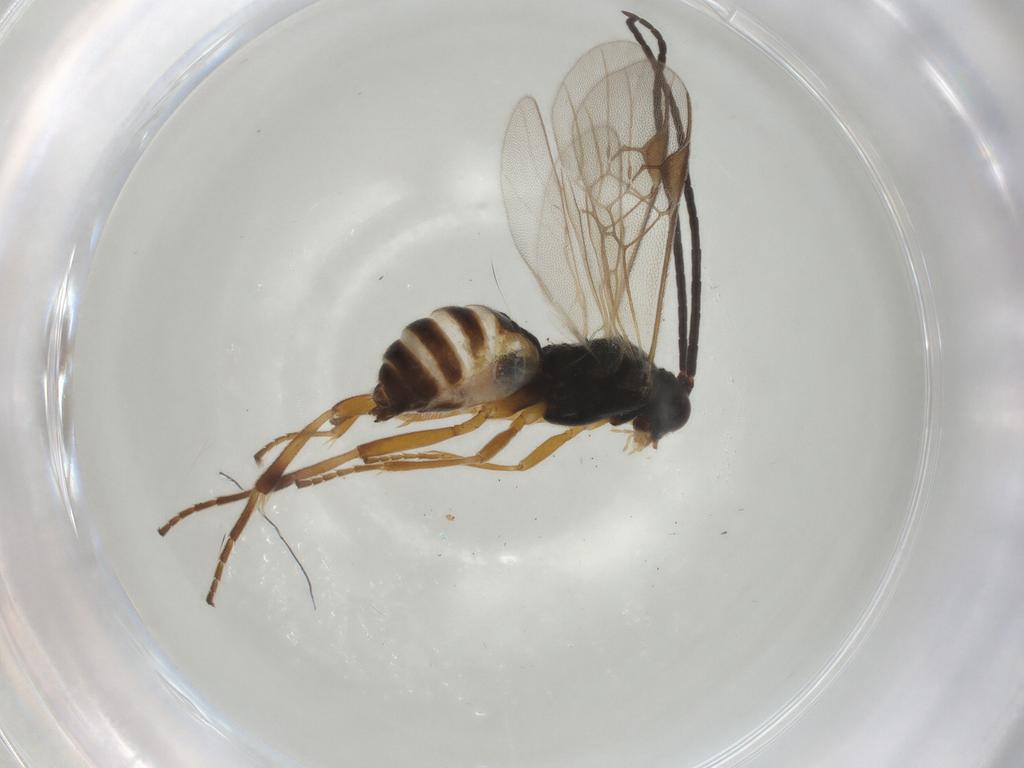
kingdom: Animalia
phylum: Arthropoda
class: Insecta
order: Hymenoptera
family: Braconidae
